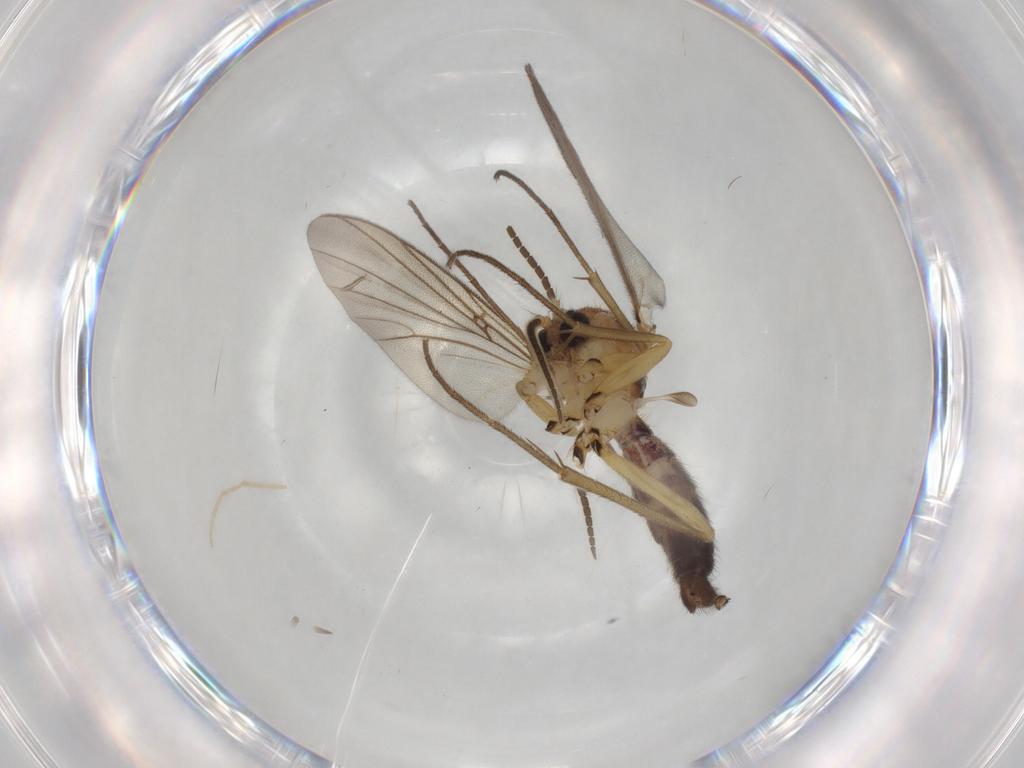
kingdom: Animalia
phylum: Arthropoda
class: Insecta
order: Diptera
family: Mycetophilidae
